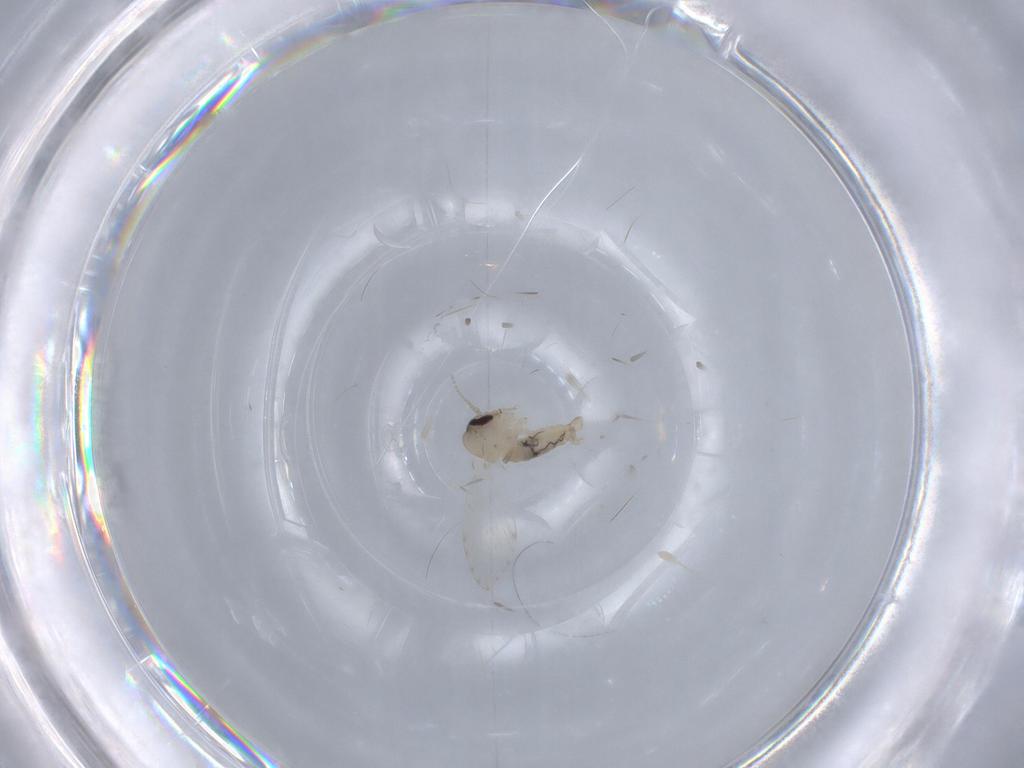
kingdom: Animalia
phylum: Arthropoda
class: Insecta
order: Diptera
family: Psychodidae
